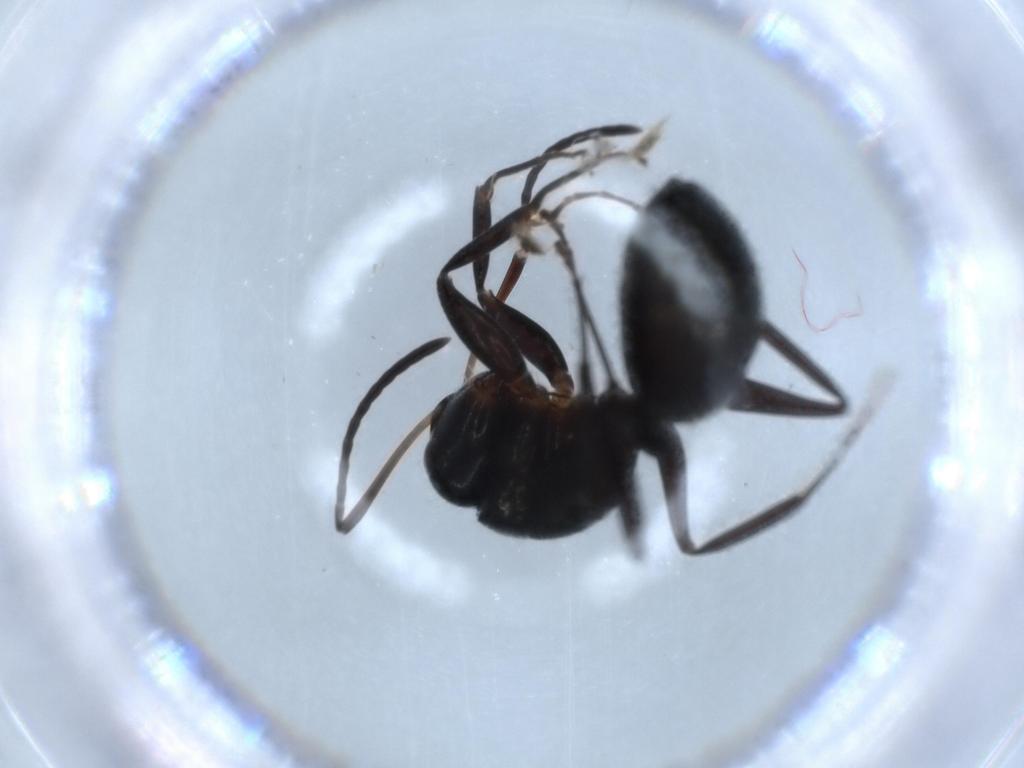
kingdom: Animalia
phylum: Arthropoda
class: Insecta
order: Hymenoptera
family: Formicidae
